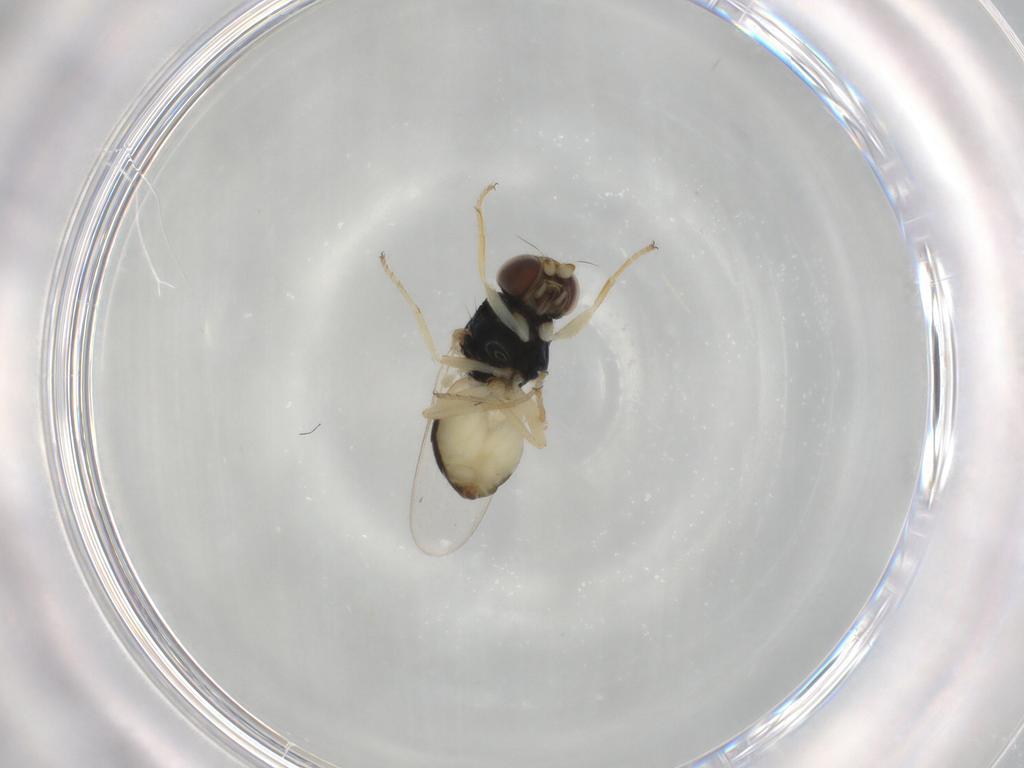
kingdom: Animalia
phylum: Arthropoda
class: Insecta
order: Diptera
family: Chloropidae
